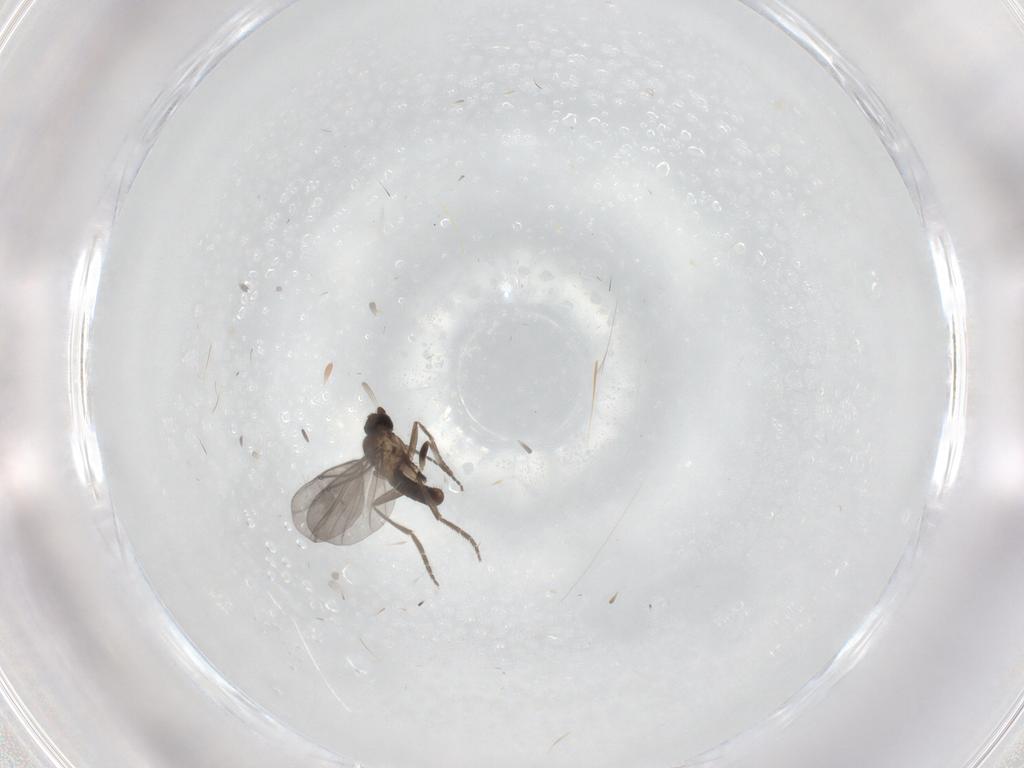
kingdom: Animalia
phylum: Arthropoda
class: Insecta
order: Diptera
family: Phoridae
